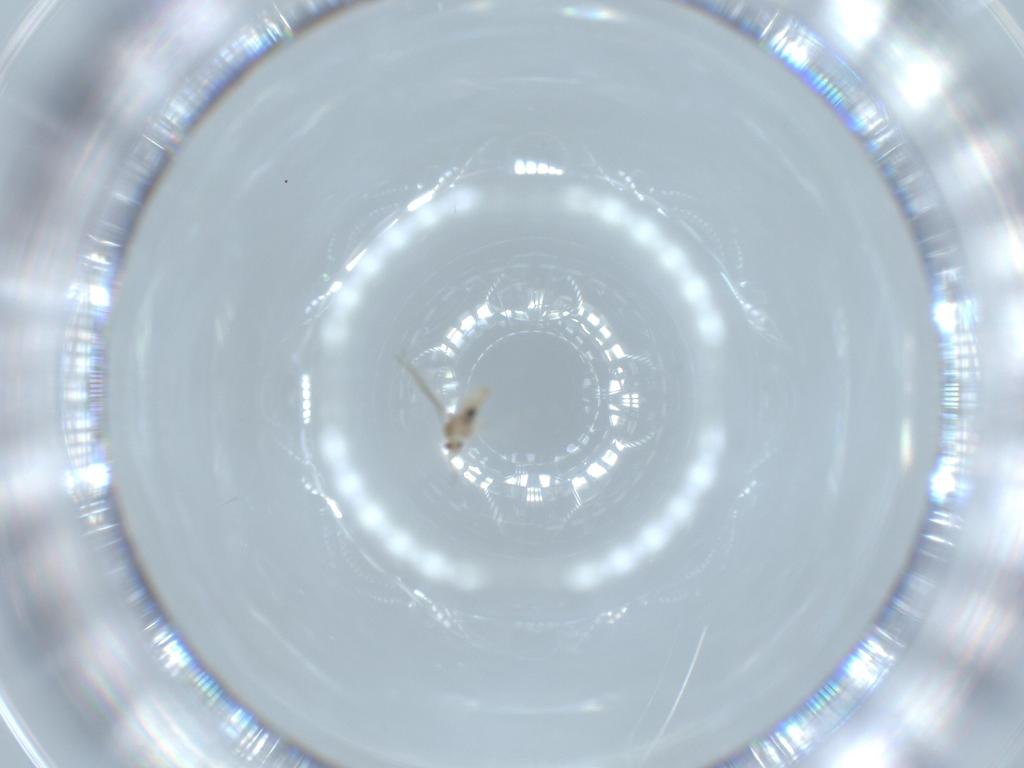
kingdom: Animalia
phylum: Arthropoda
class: Insecta
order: Diptera
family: Cecidomyiidae
